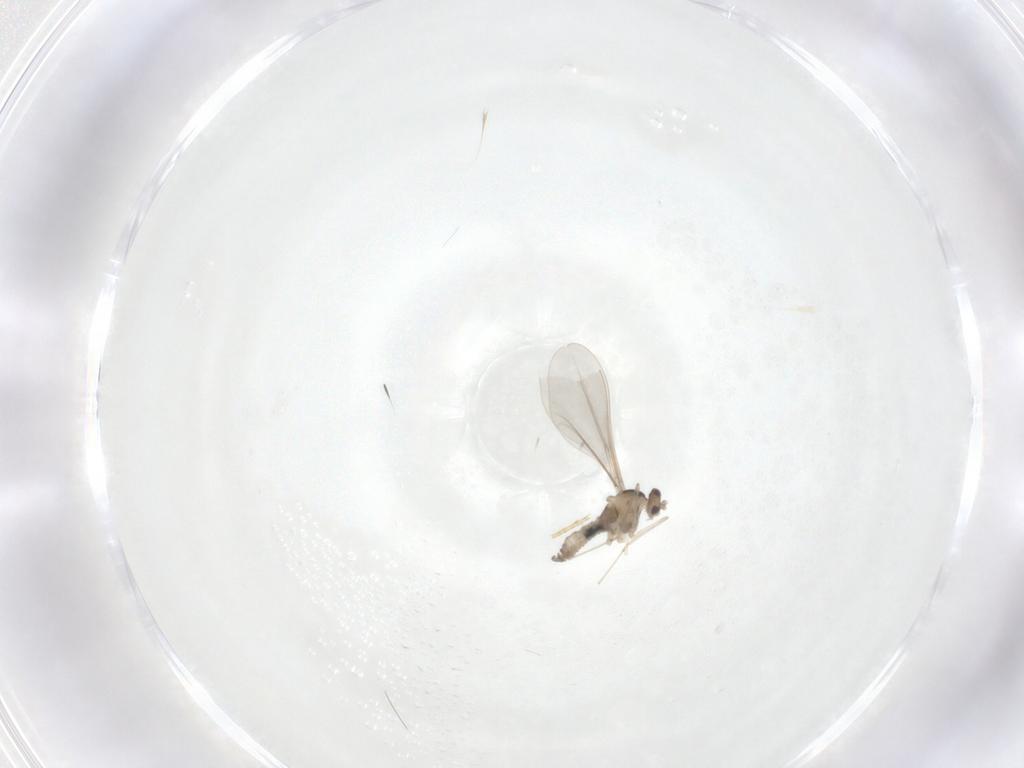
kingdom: Animalia
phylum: Arthropoda
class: Insecta
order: Diptera
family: Cecidomyiidae
